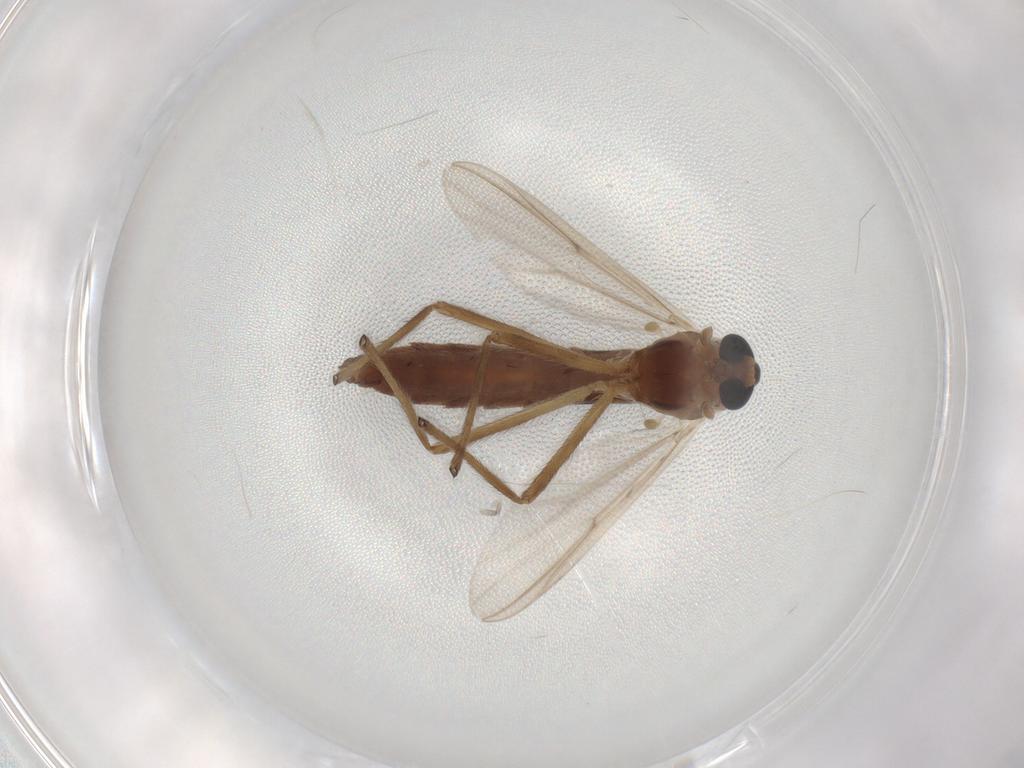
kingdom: Animalia
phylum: Arthropoda
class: Insecta
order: Diptera
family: Chironomidae
